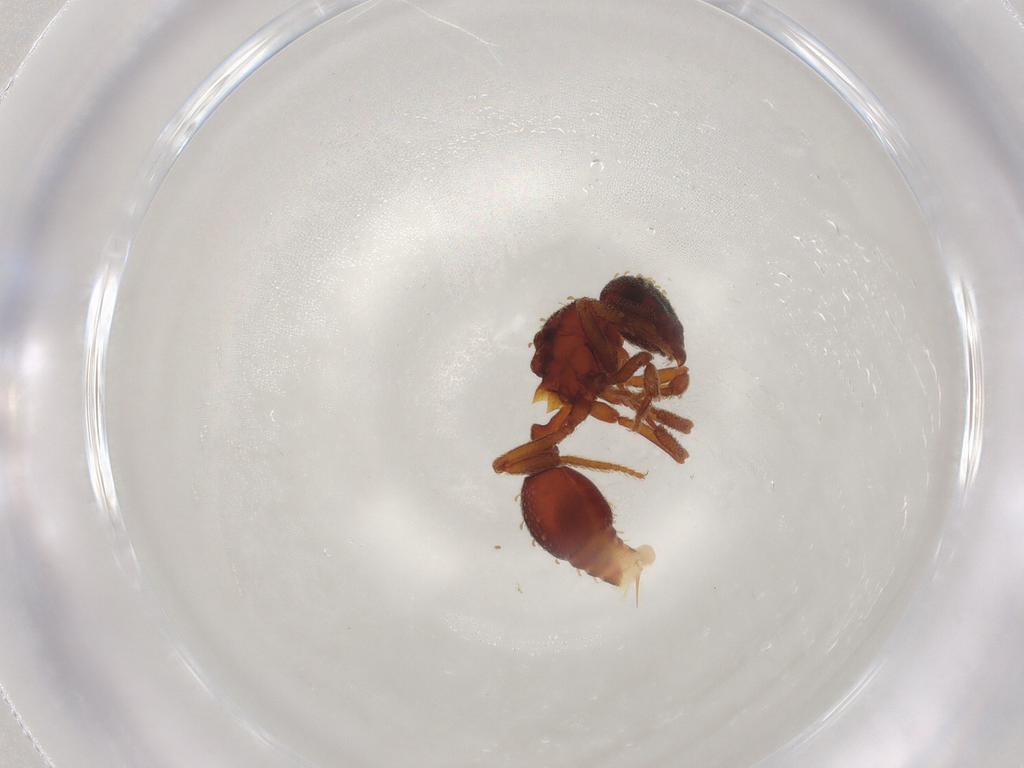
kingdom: Animalia
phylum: Arthropoda
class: Insecta
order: Hymenoptera
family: Formicidae
